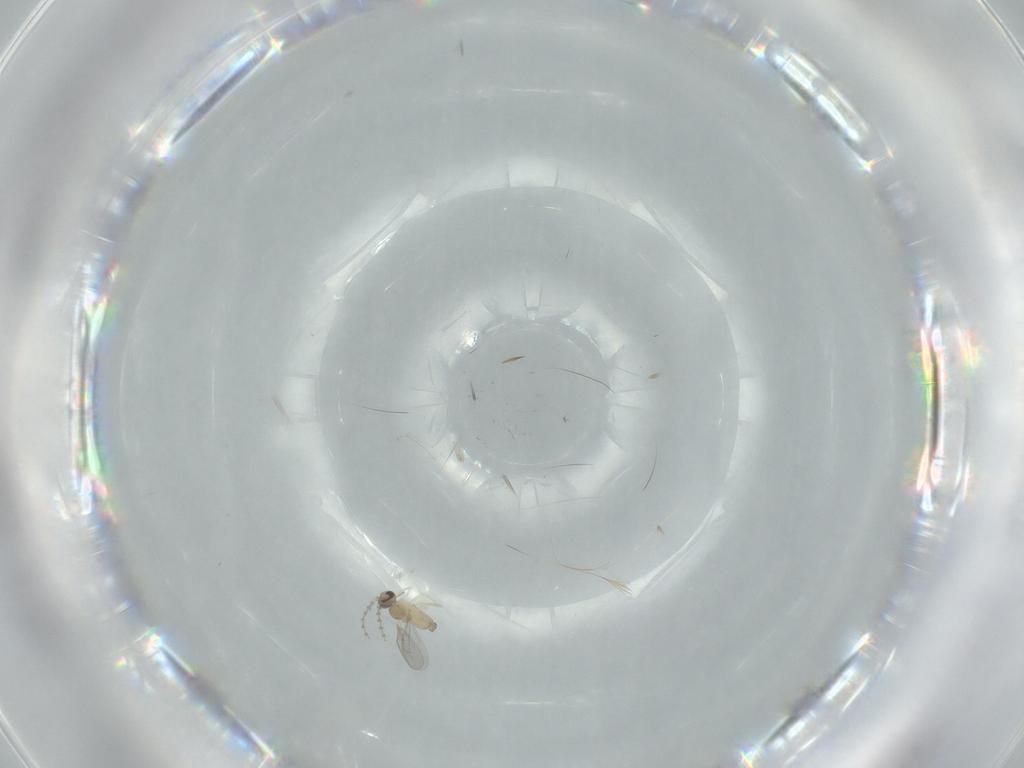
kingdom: Animalia
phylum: Arthropoda
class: Insecta
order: Diptera
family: Cecidomyiidae
